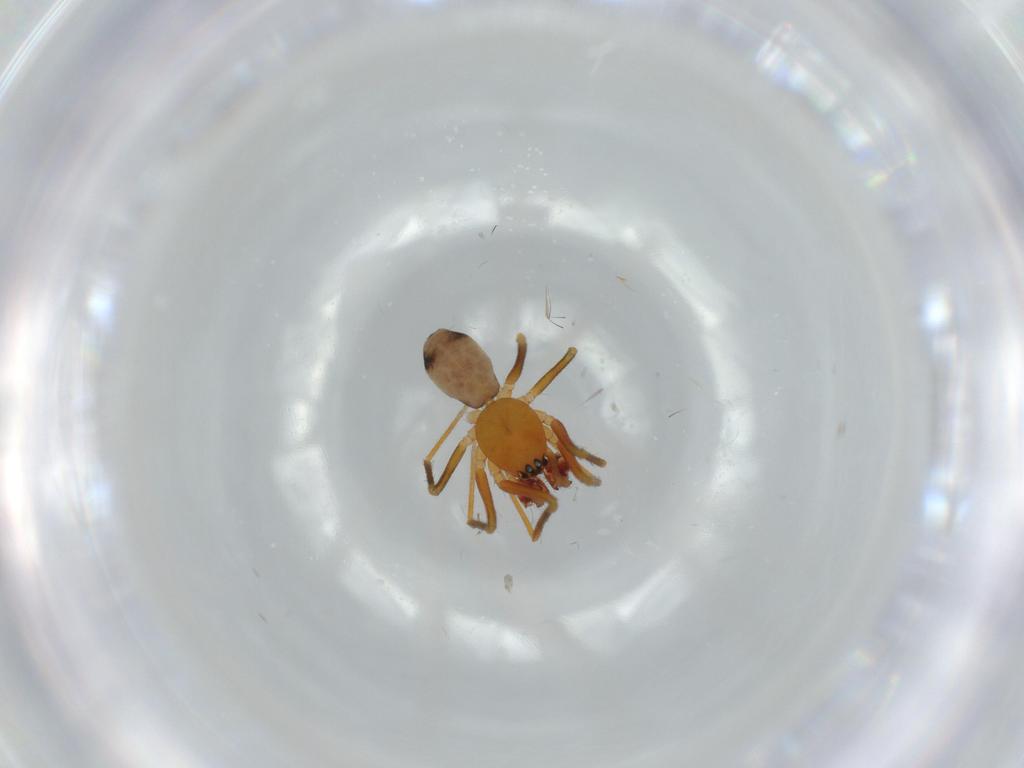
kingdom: Animalia
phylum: Arthropoda
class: Arachnida
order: Araneae
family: Linyphiidae
